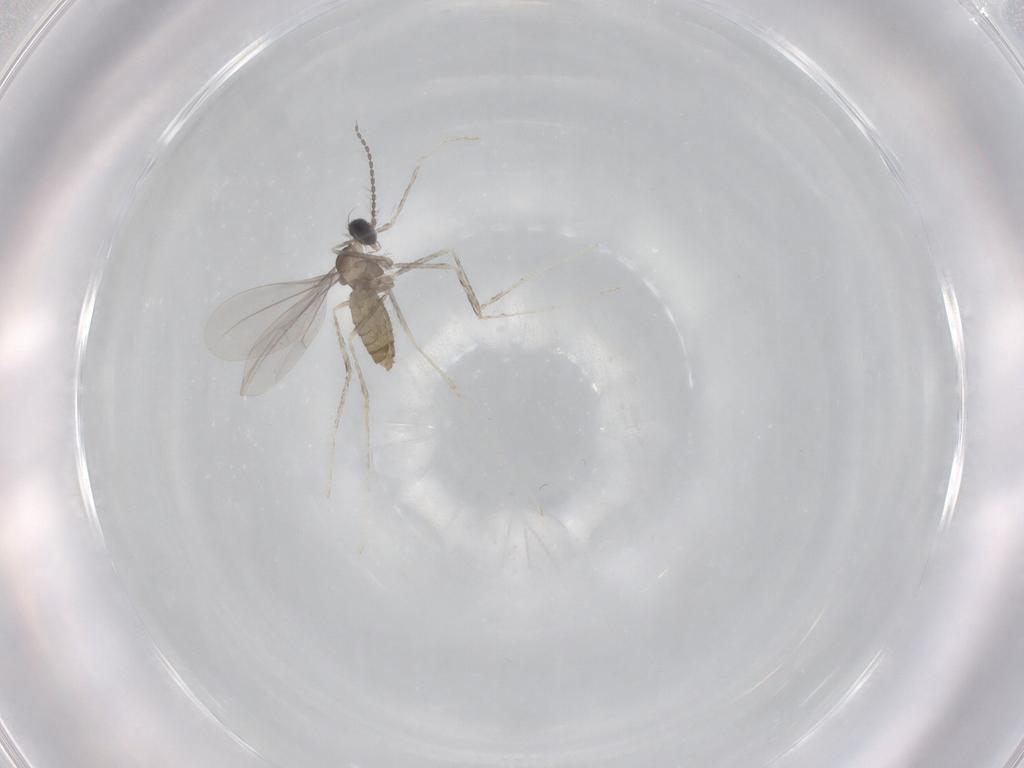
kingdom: Animalia
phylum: Arthropoda
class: Insecta
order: Diptera
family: Cecidomyiidae
